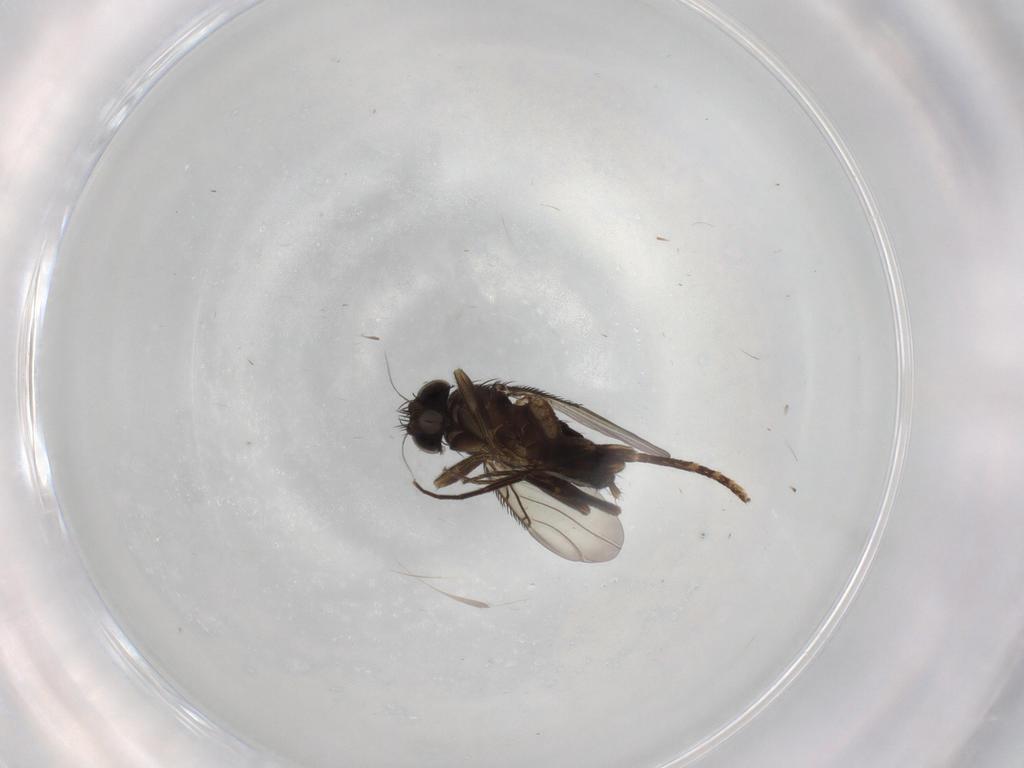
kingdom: Animalia
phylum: Arthropoda
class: Insecta
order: Diptera
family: Phoridae
